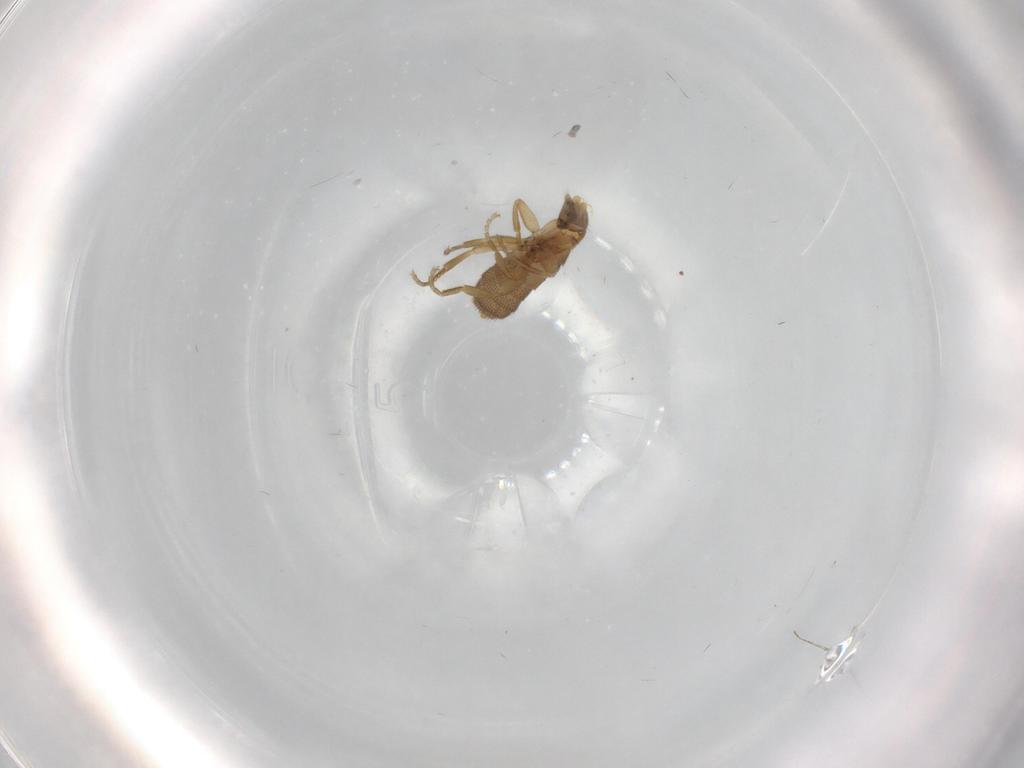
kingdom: Animalia
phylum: Arthropoda
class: Insecta
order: Diptera
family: Phoridae
